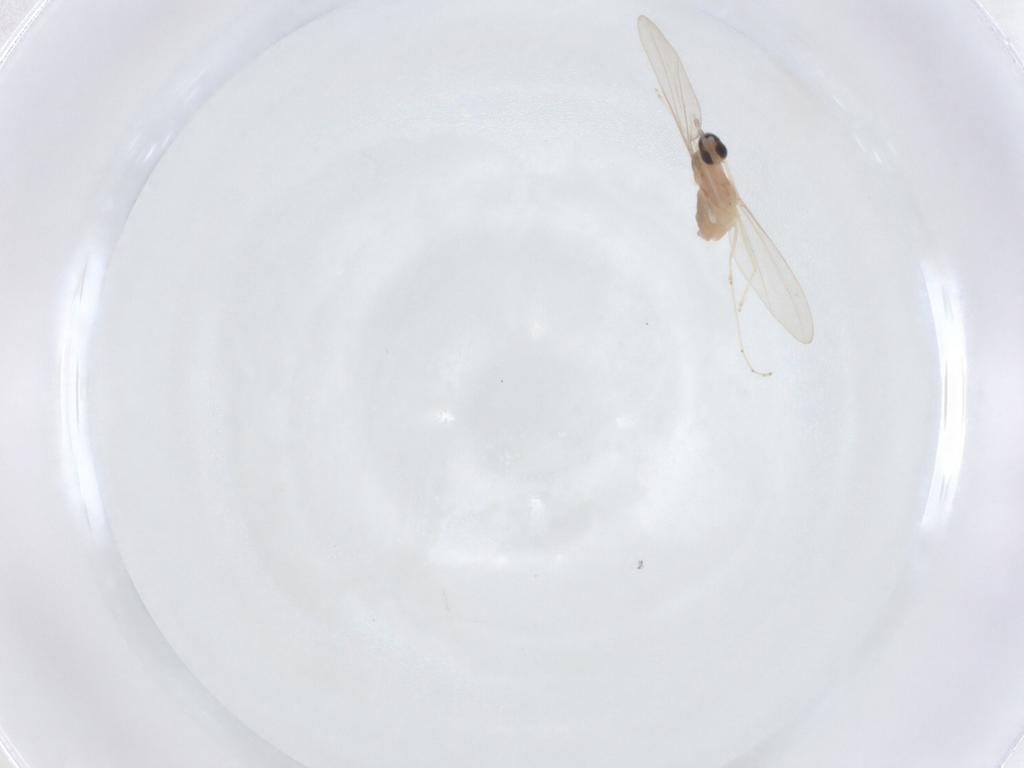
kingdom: Animalia
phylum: Arthropoda
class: Insecta
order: Diptera
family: Cecidomyiidae
